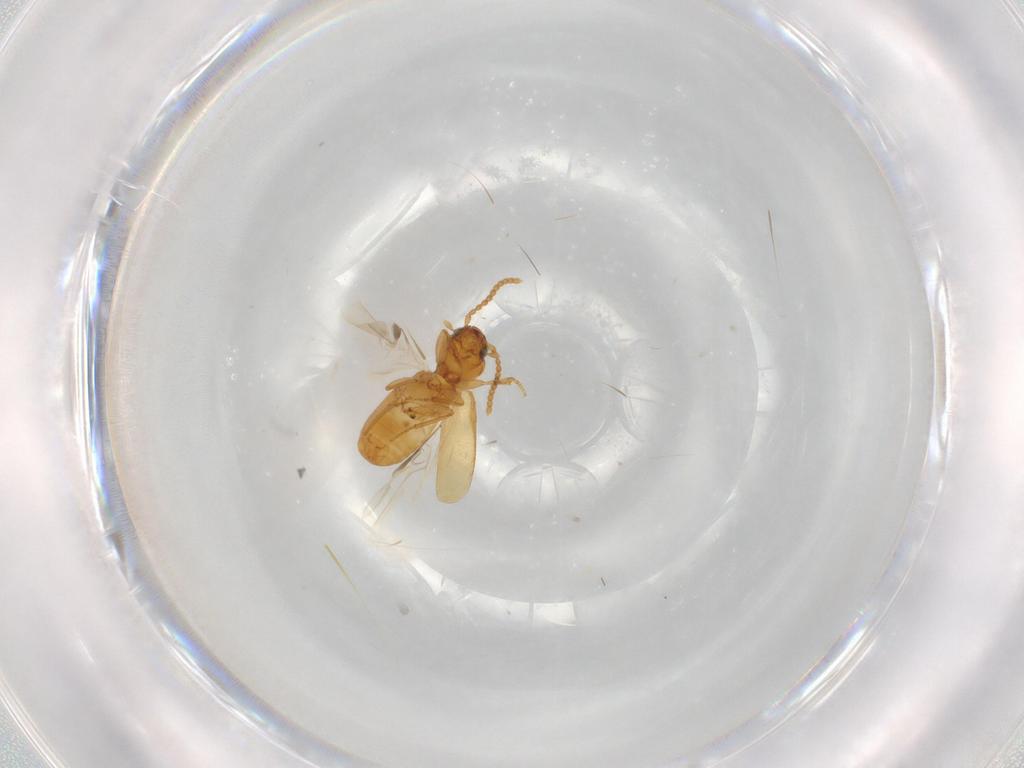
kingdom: Animalia
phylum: Arthropoda
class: Insecta
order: Coleoptera
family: Carabidae
